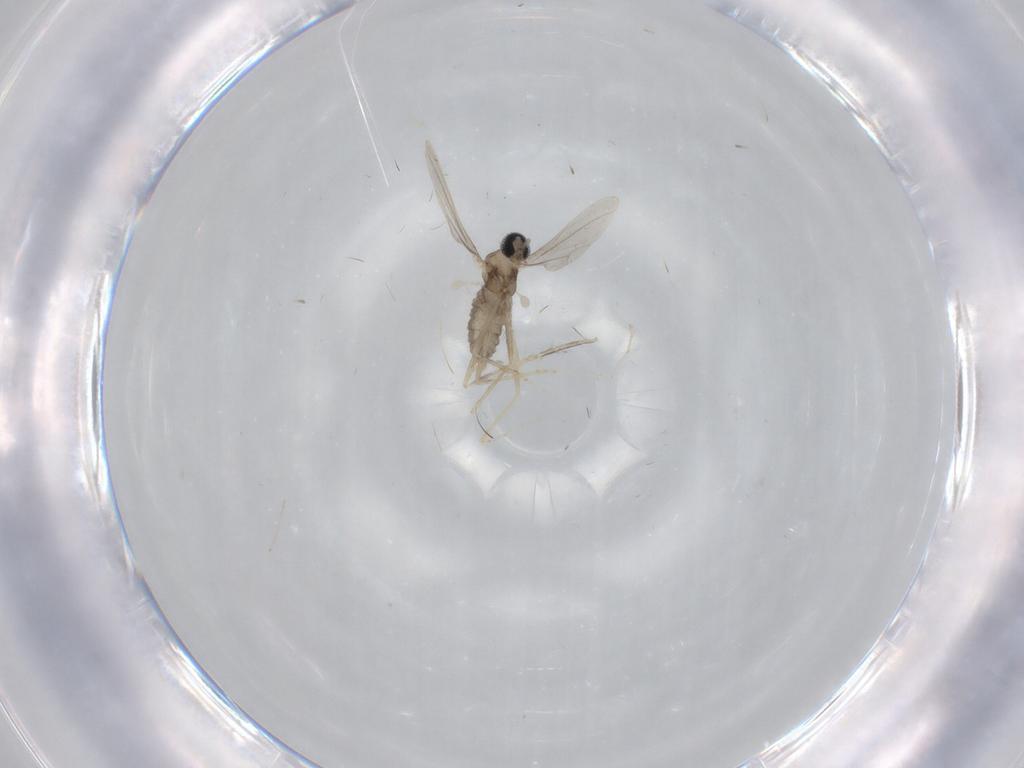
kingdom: Animalia
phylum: Arthropoda
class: Insecta
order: Diptera
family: Cecidomyiidae
